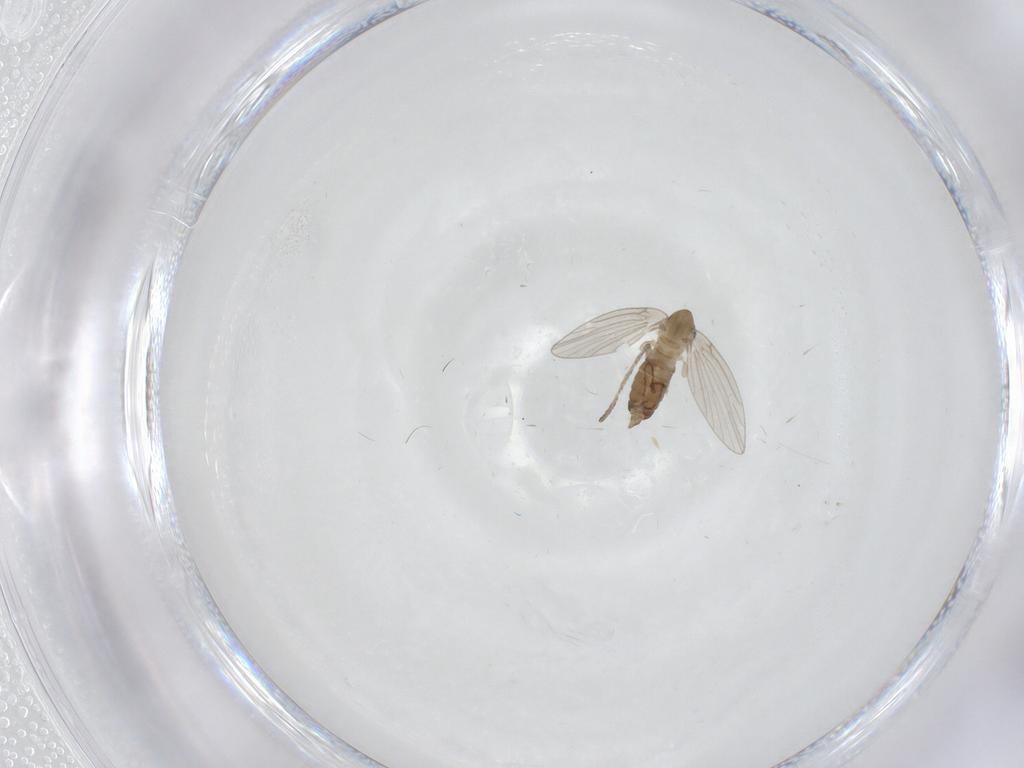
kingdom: Animalia
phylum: Arthropoda
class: Insecta
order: Diptera
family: Psychodidae
